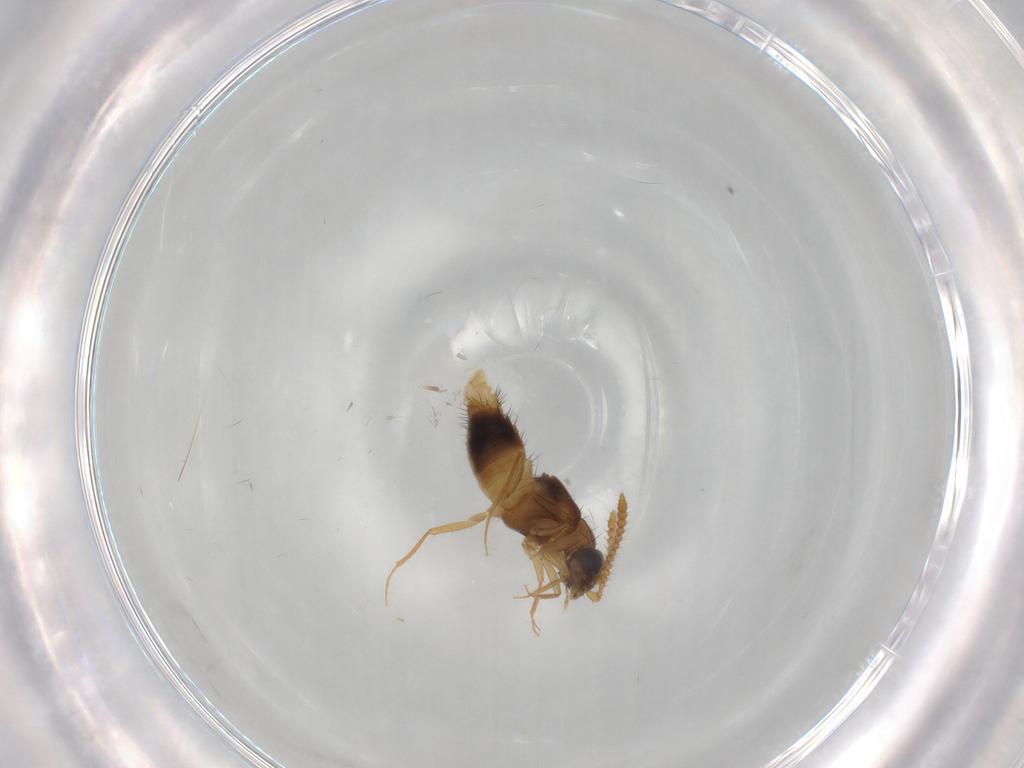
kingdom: Animalia
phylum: Arthropoda
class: Insecta
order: Coleoptera
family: Staphylinidae
